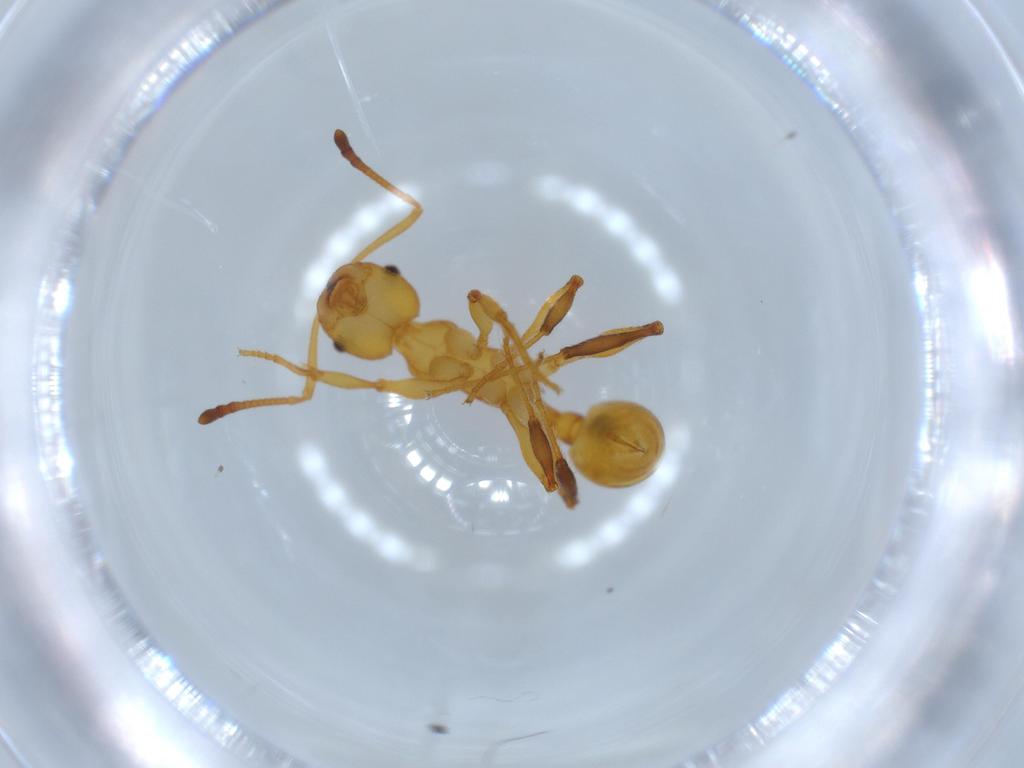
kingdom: Animalia
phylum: Arthropoda
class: Insecta
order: Hymenoptera
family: Formicidae
